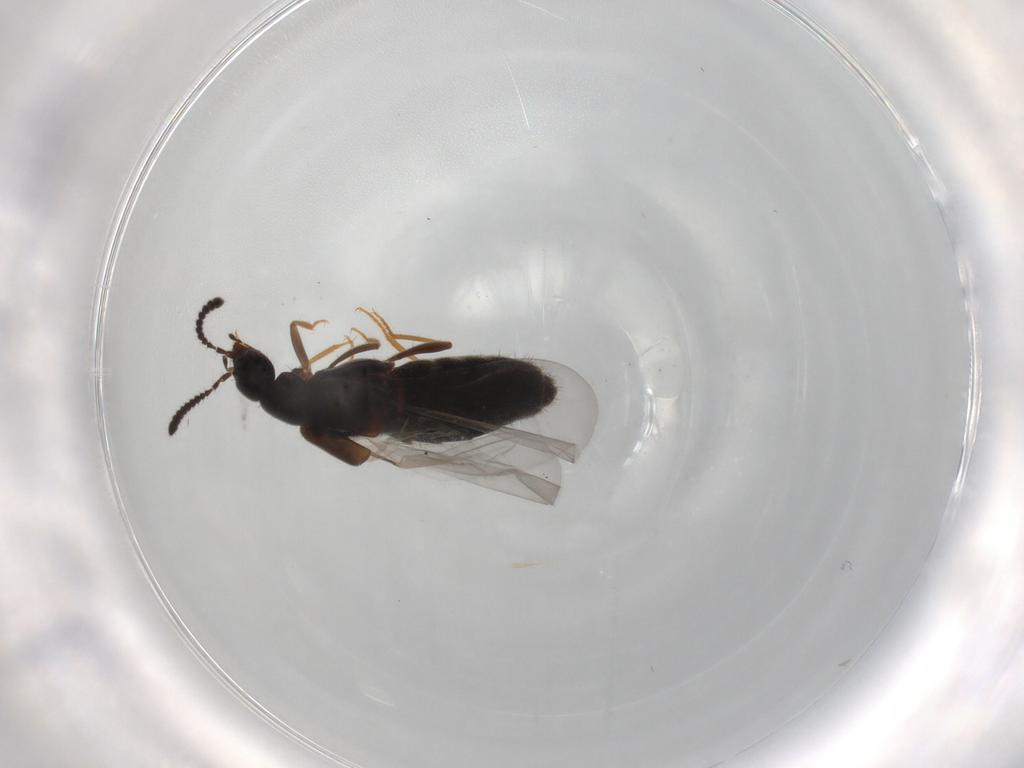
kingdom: Animalia
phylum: Arthropoda
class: Insecta
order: Coleoptera
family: Staphylinidae
